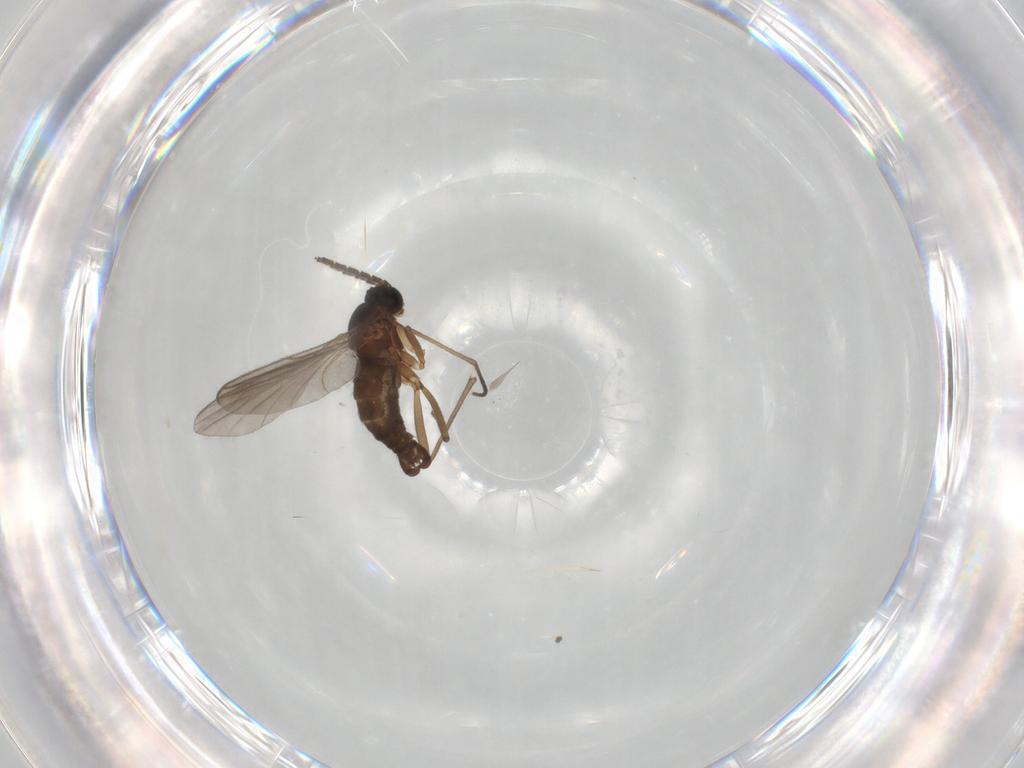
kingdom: Animalia
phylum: Arthropoda
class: Insecta
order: Diptera
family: Sciaridae
